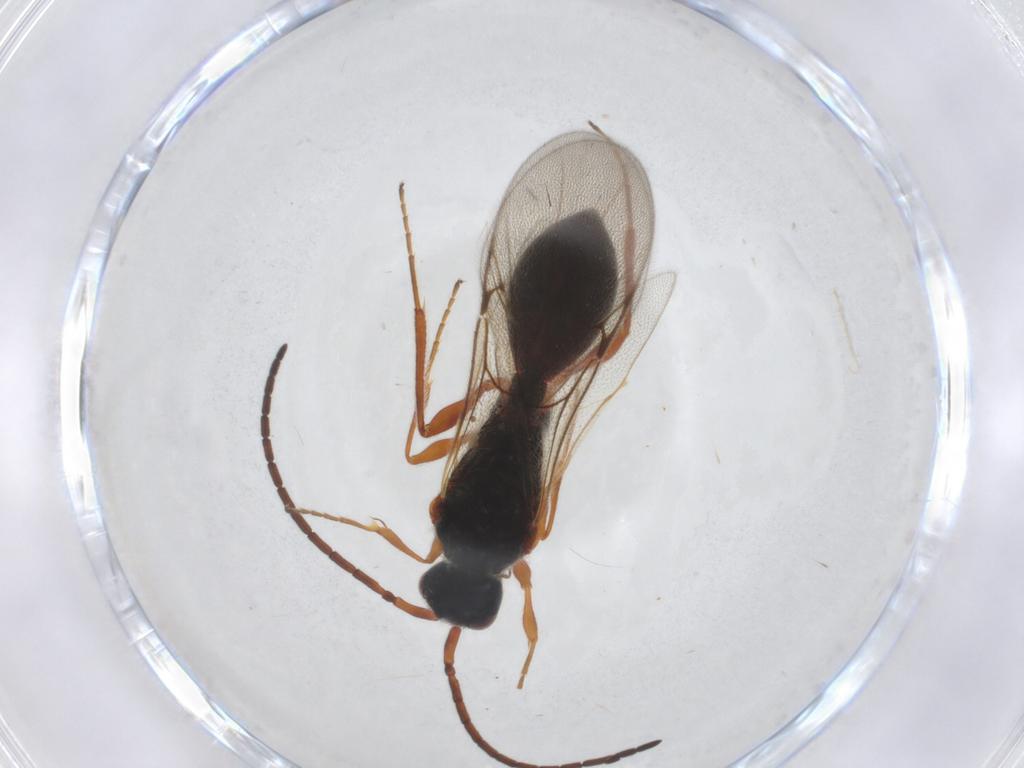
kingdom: Animalia
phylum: Arthropoda
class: Insecta
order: Hymenoptera
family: Diapriidae
